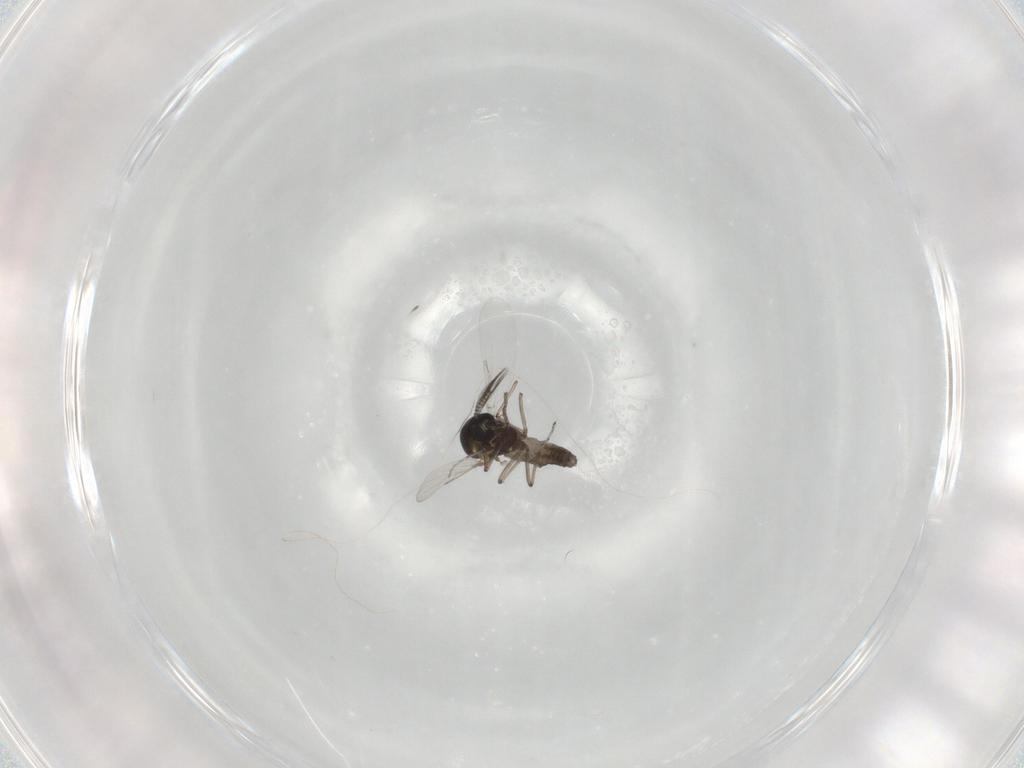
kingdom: Animalia
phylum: Arthropoda
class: Insecta
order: Diptera
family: Ceratopogonidae
